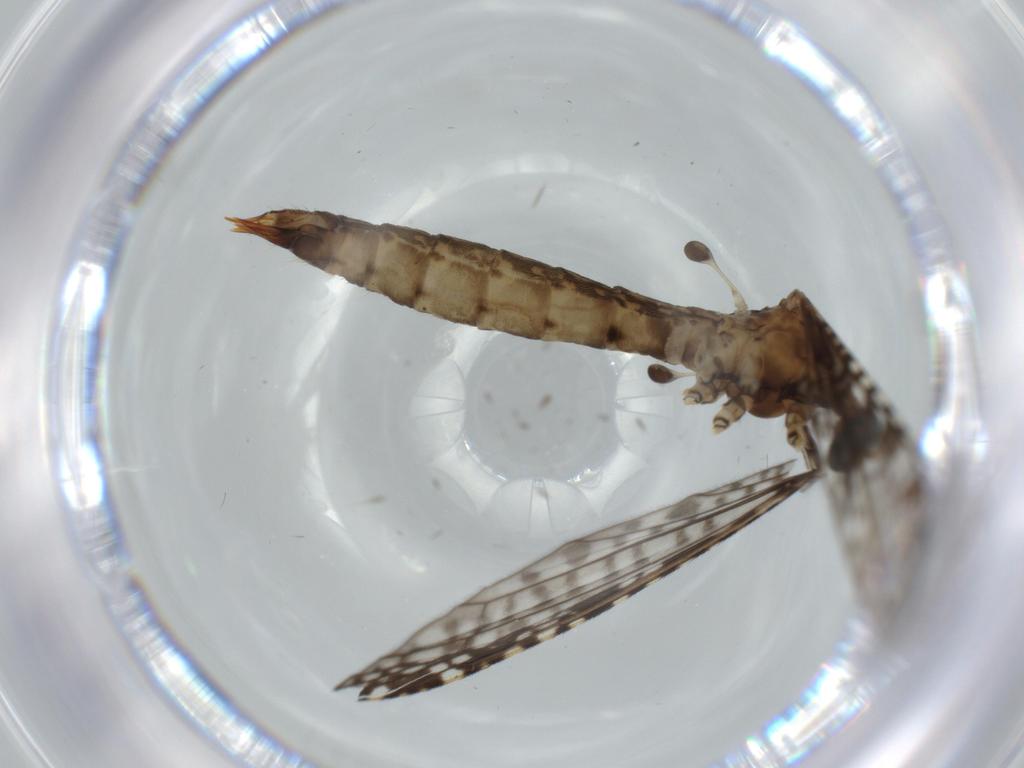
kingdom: Animalia
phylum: Arthropoda
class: Insecta
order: Diptera
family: Limoniidae
